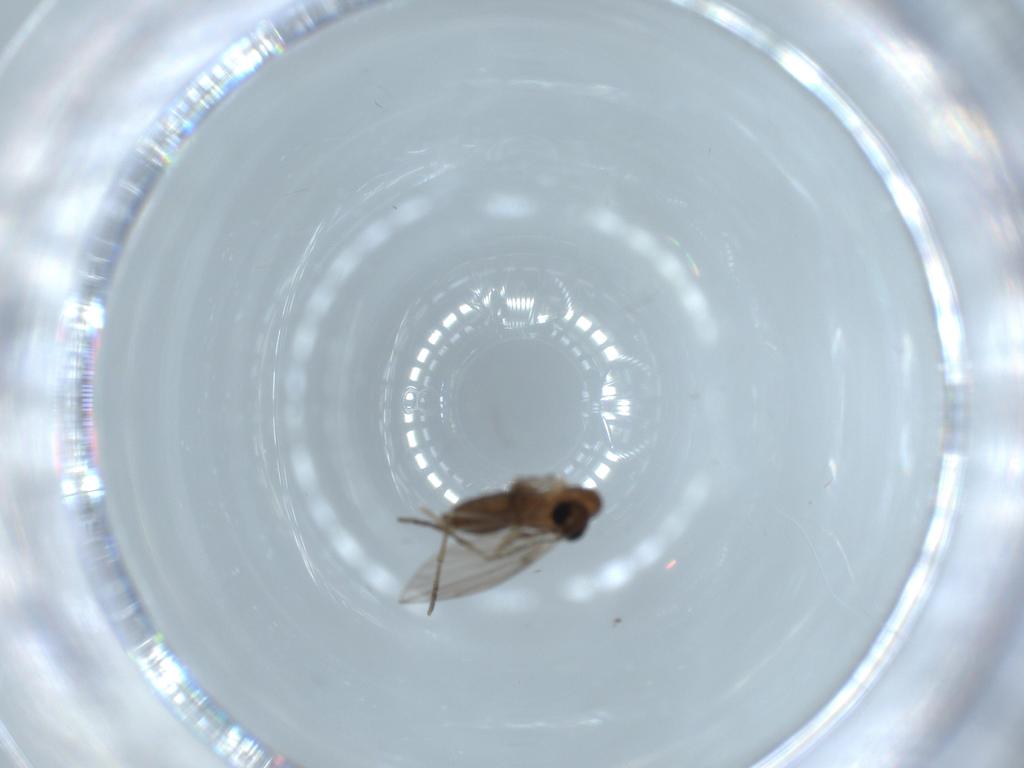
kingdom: Animalia
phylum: Arthropoda
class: Insecta
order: Diptera
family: Psychodidae
